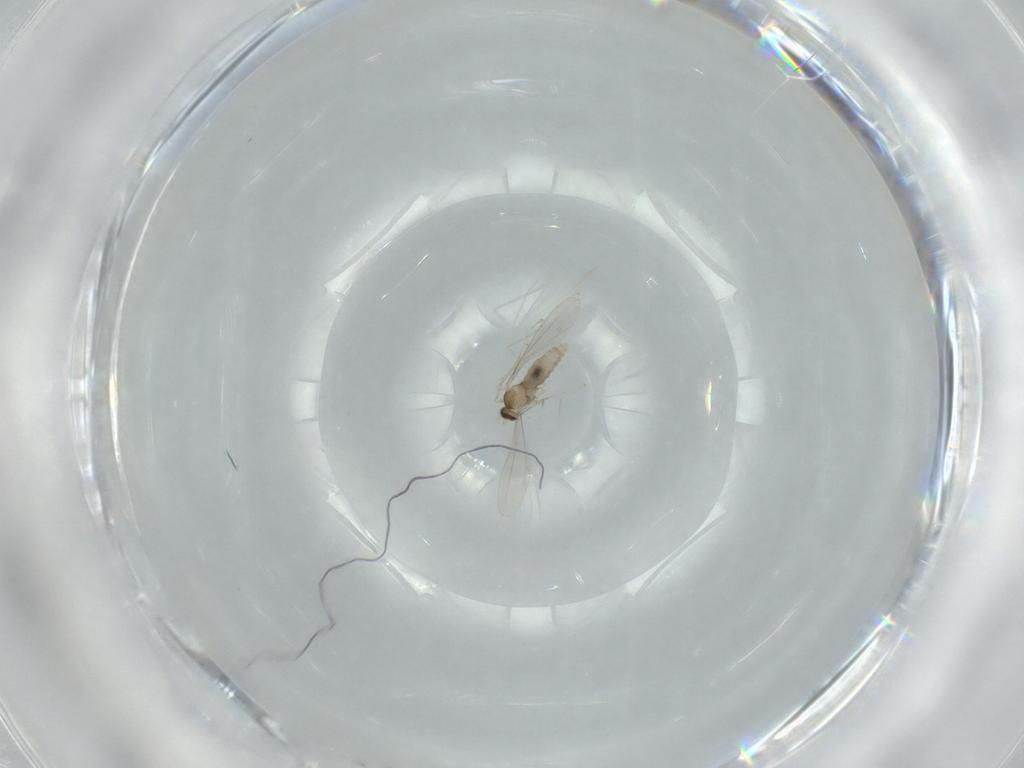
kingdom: Animalia
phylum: Arthropoda
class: Insecta
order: Diptera
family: Cecidomyiidae
